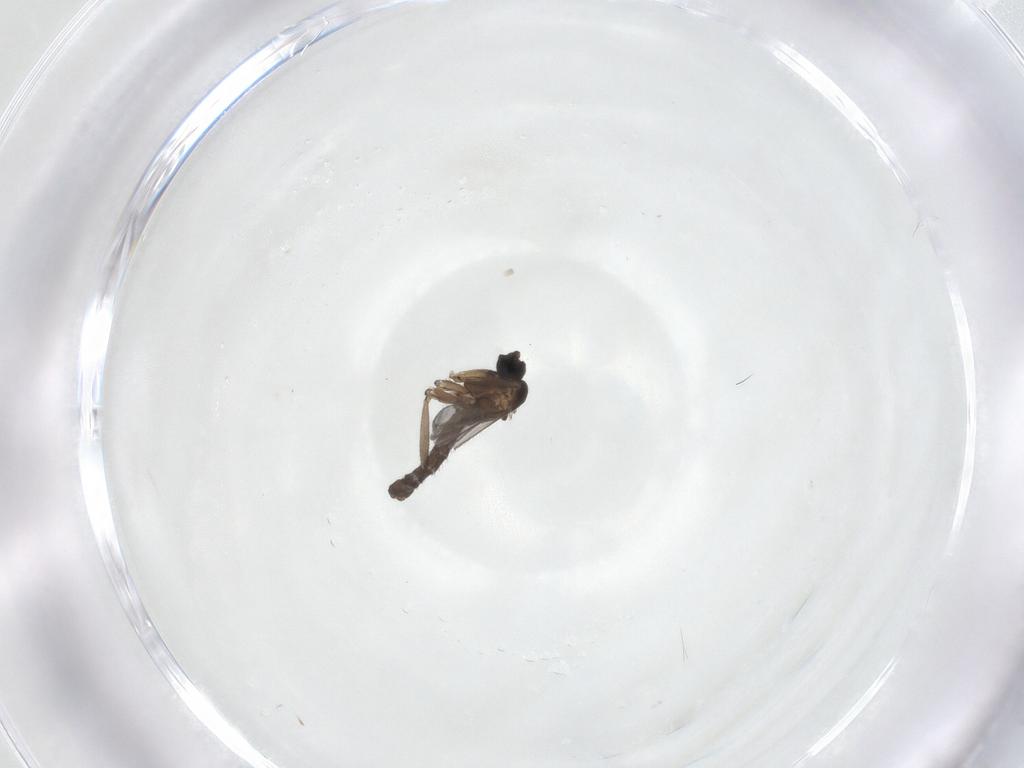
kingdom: Animalia
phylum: Arthropoda
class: Insecta
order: Diptera
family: Sciaridae
